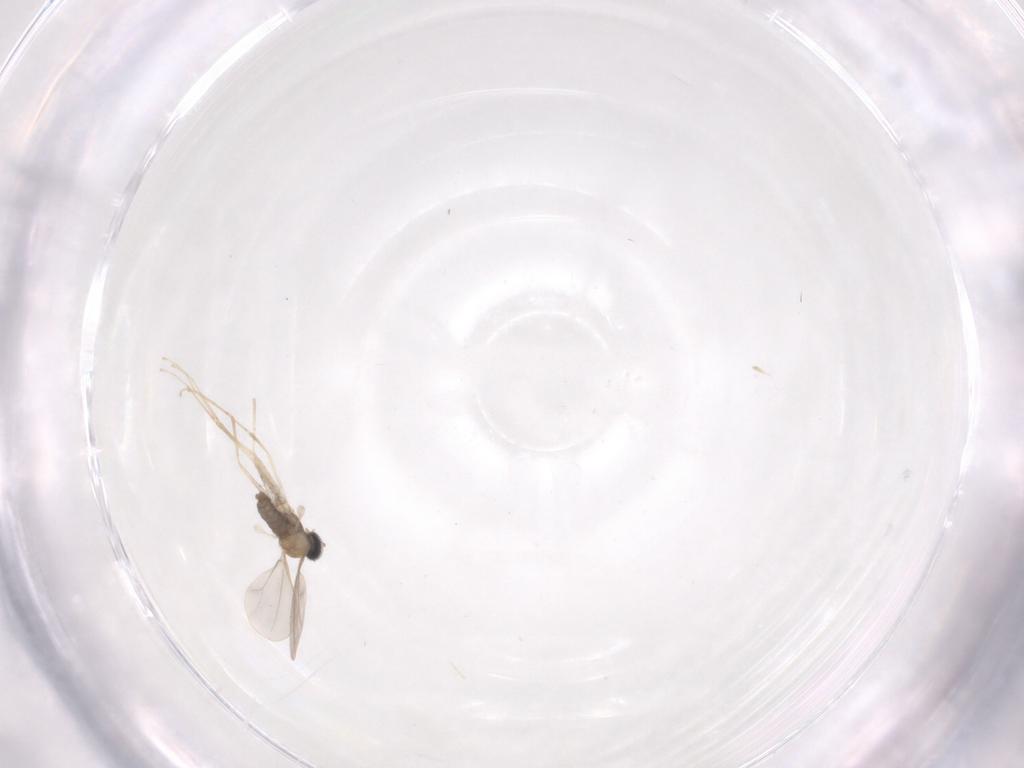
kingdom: Animalia
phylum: Arthropoda
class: Insecta
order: Diptera
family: Cecidomyiidae
